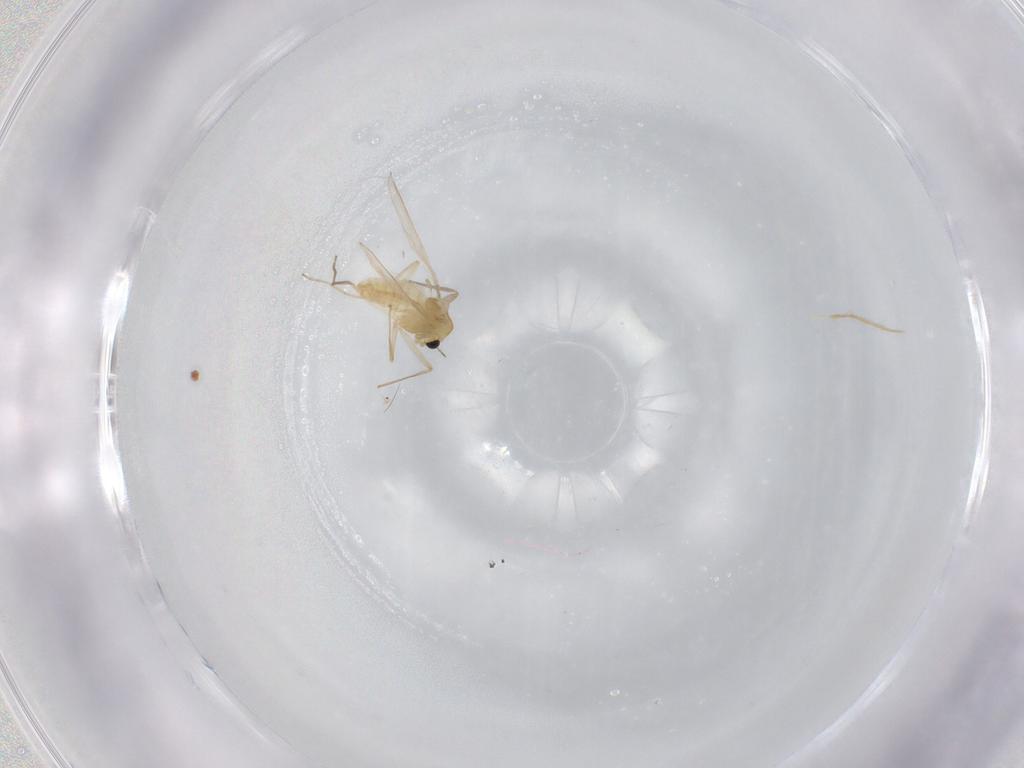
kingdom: Animalia
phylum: Arthropoda
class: Insecta
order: Diptera
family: Chironomidae
